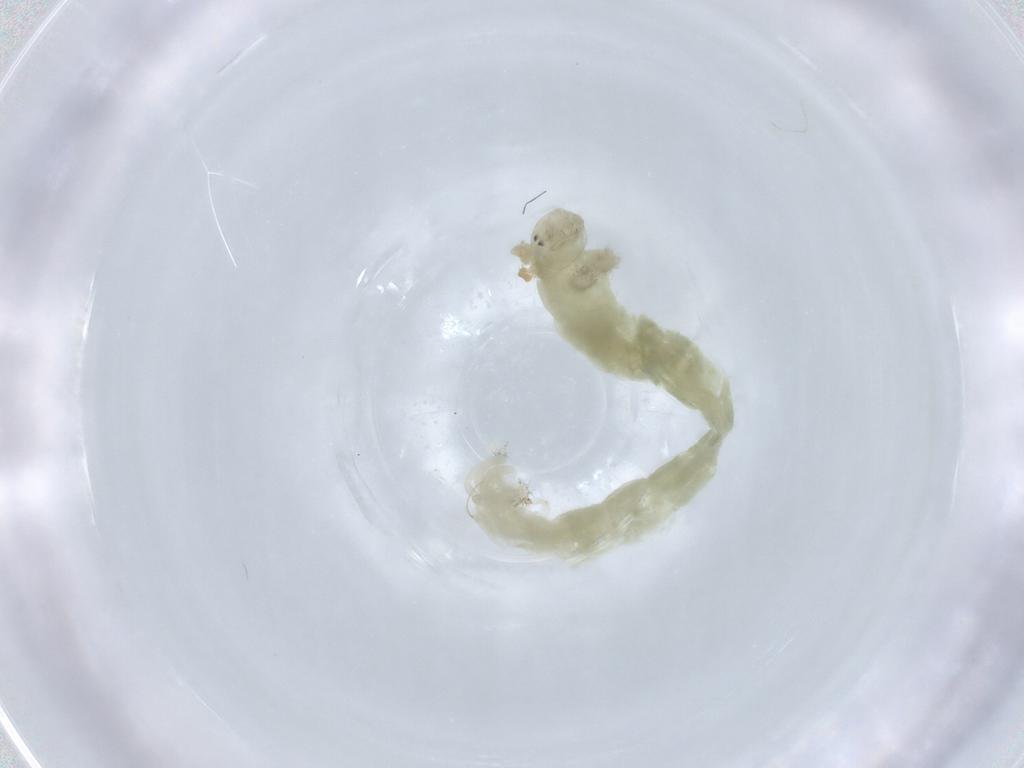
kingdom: Animalia
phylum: Arthropoda
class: Insecta
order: Diptera
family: Chironomidae
